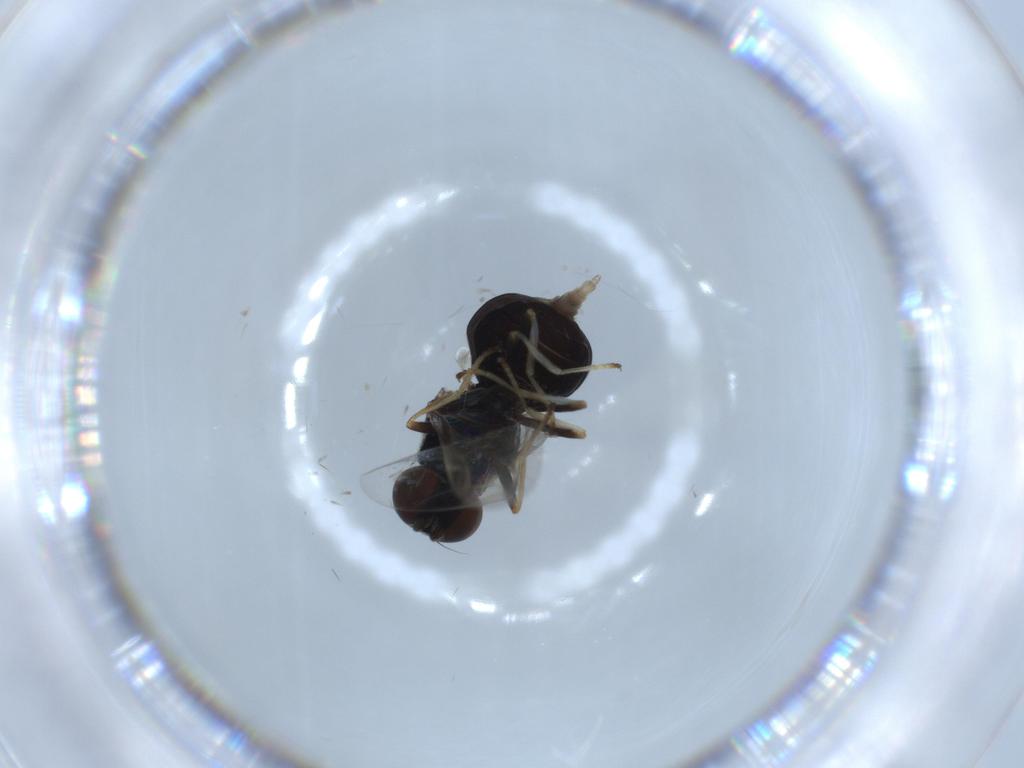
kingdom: Animalia
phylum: Arthropoda
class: Insecta
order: Diptera
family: Stratiomyidae
